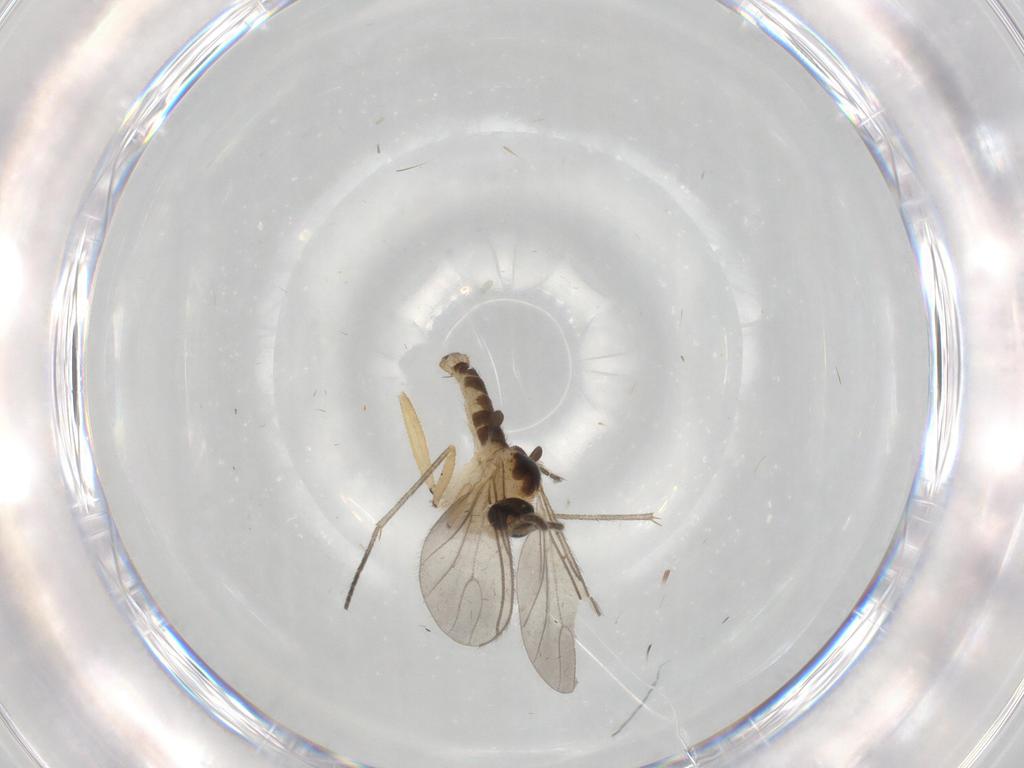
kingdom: Animalia
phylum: Arthropoda
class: Insecta
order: Diptera
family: Sciaridae
